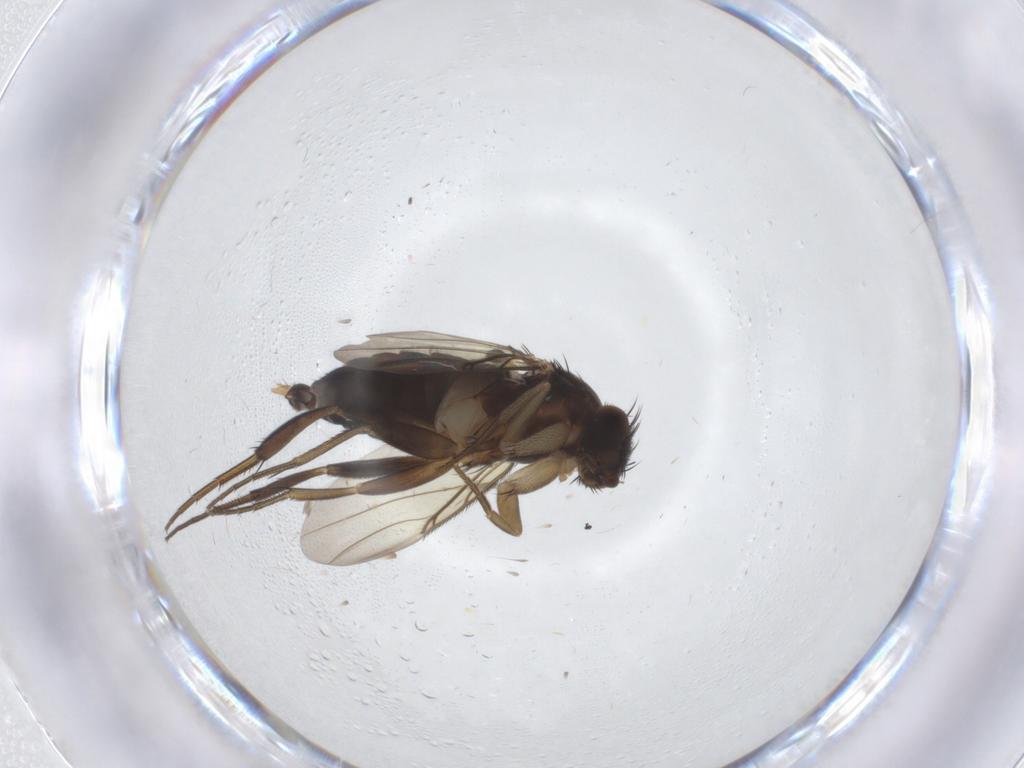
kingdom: Animalia
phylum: Arthropoda
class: Insecta
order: Diptera
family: Phoridae
